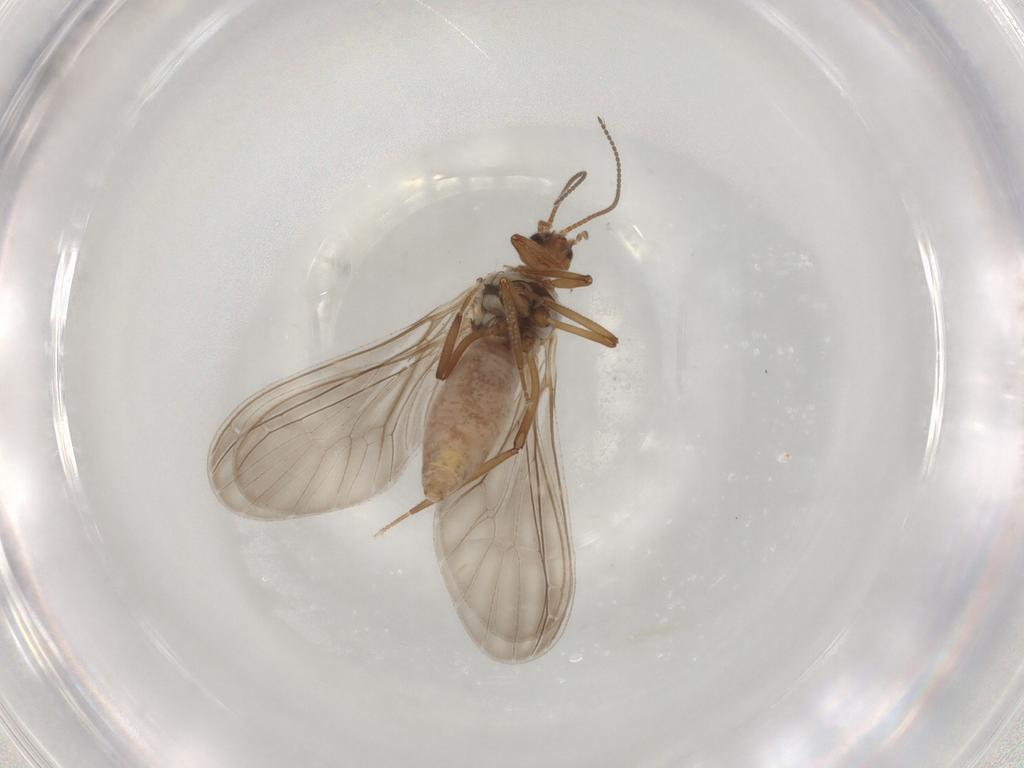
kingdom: Animalia
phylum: Arthropoda
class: Insecta
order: Neuroptera
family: Coniopterygidae
